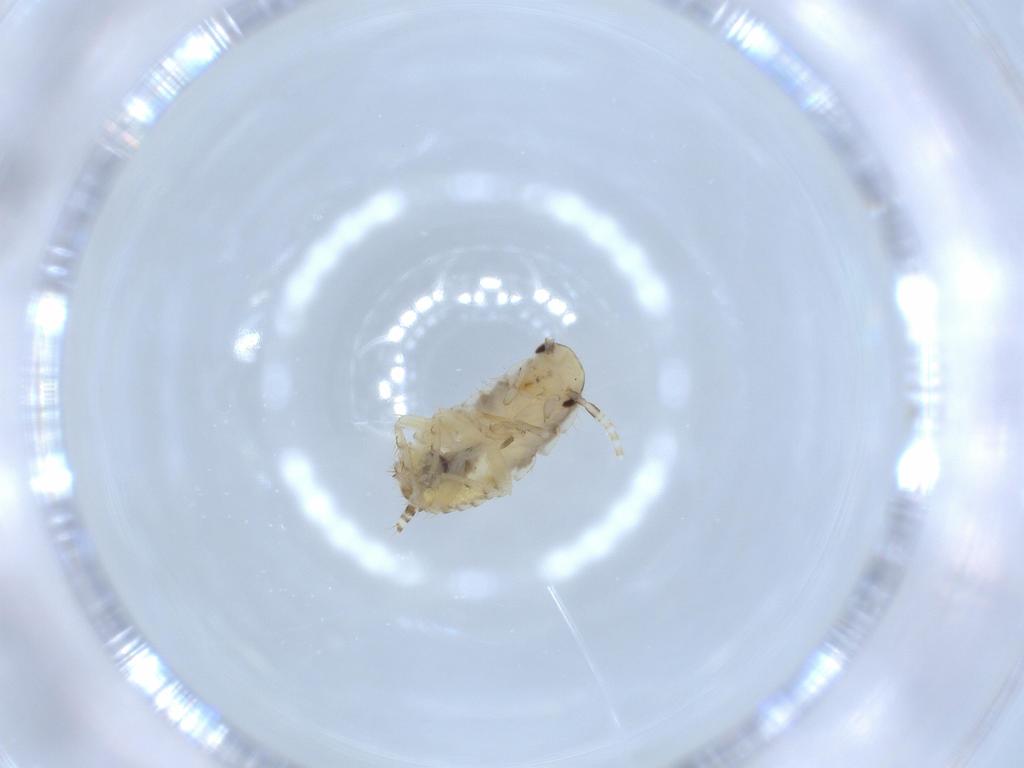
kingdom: Animalia
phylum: Arthropoda
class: Insecta
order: Blattodea
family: Ectobiidae
